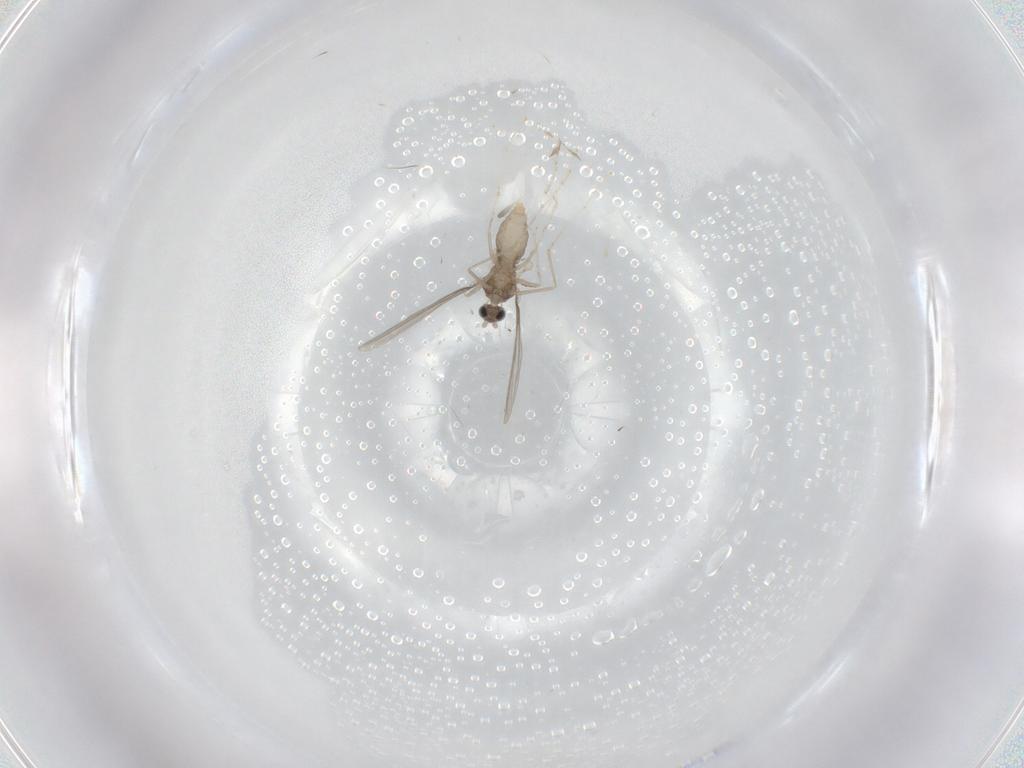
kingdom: Animalia
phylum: Arthropoda
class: Insecta
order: Diptera
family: Cecidomyiidae
